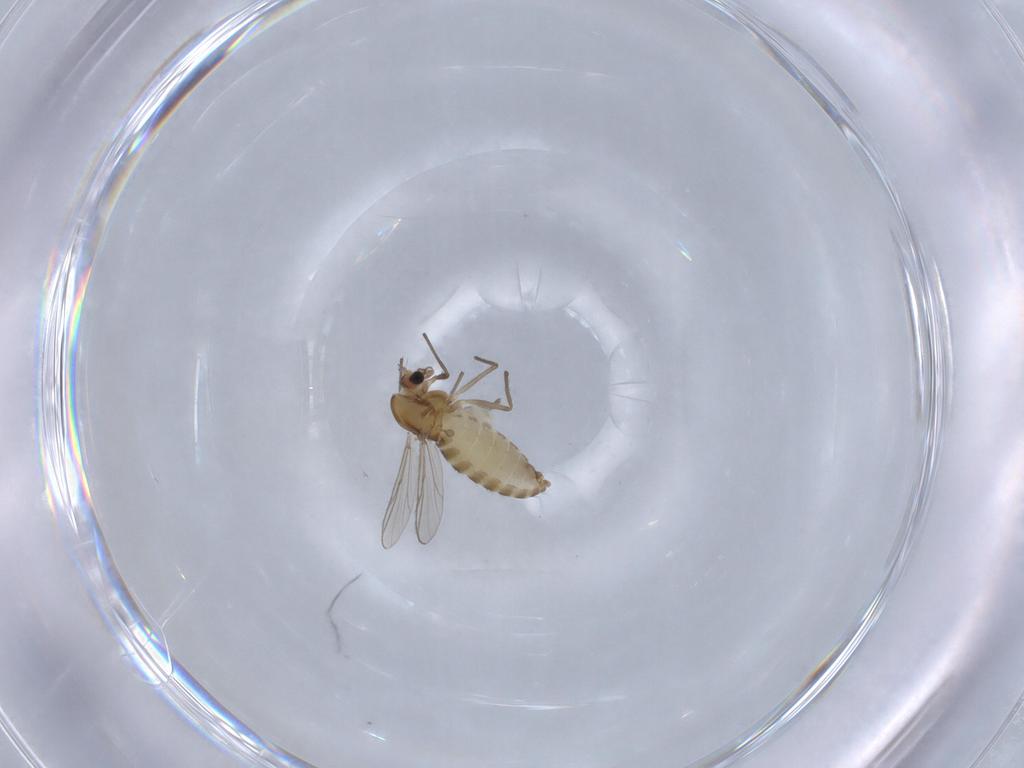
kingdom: Animalia
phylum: Arthropoda
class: Insecta
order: Diptera
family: Chironomidae
